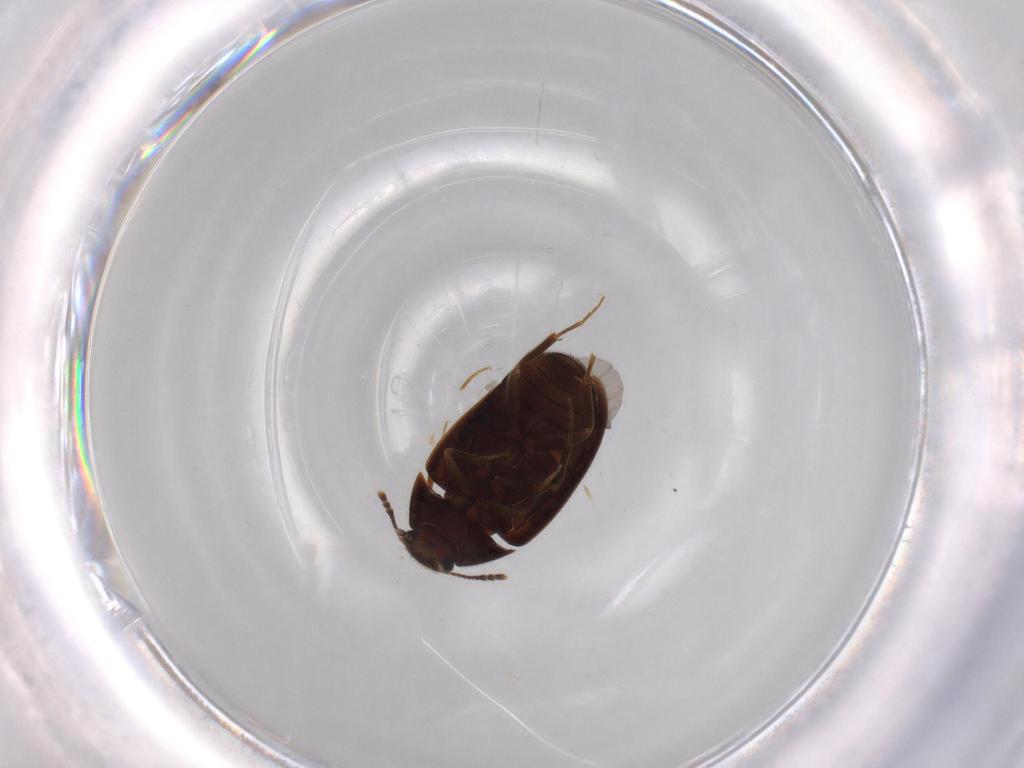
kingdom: Animalia
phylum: Arthropoda
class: Insecta
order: Coleoptera
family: Mycetophagidae
